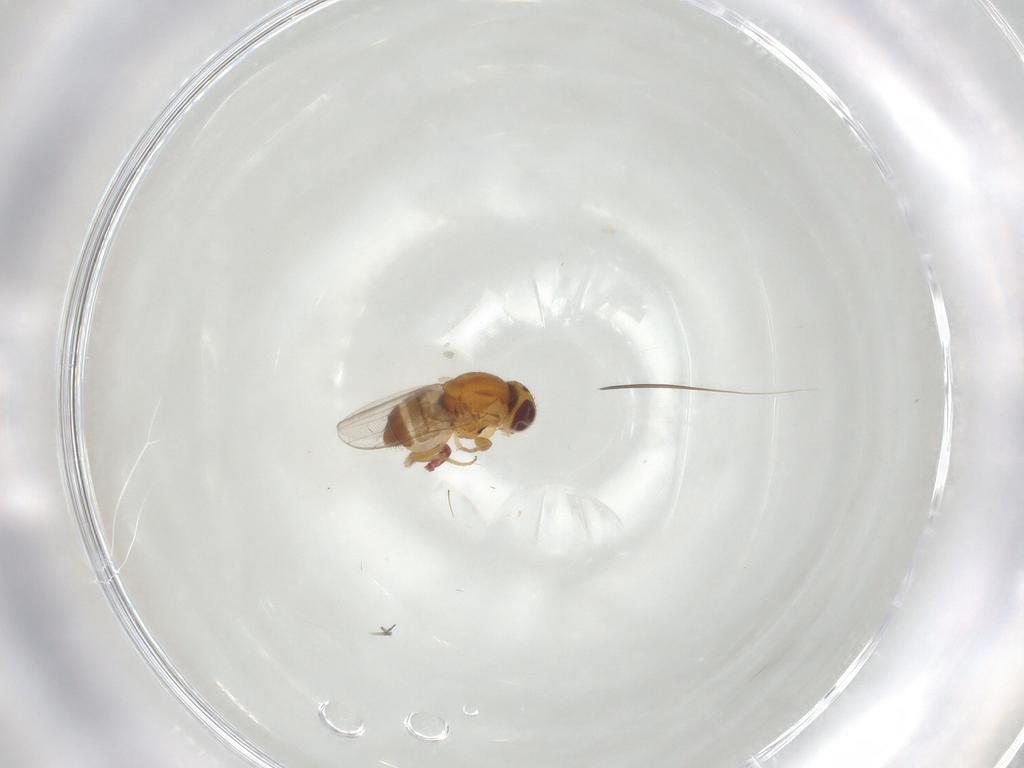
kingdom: Animalia
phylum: Arthropoda
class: Insecta
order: Diptera
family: Chloropidae
